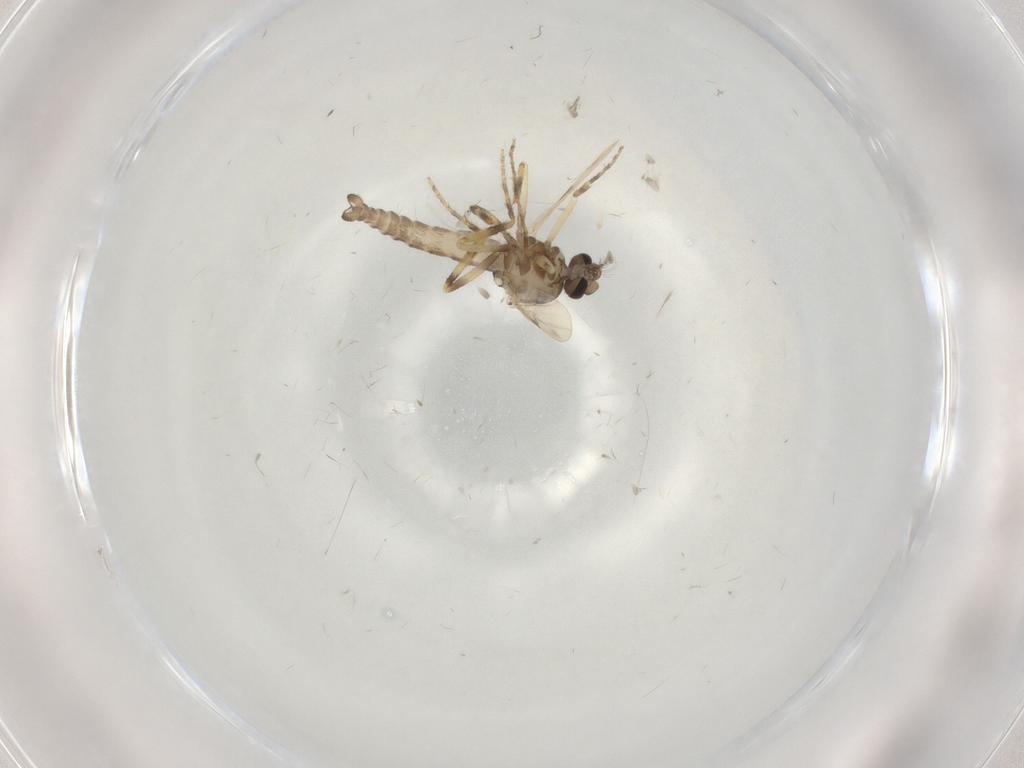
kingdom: Animalia
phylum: Arthropoda
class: Insecta
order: Diptera
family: Ceratopogonidae
